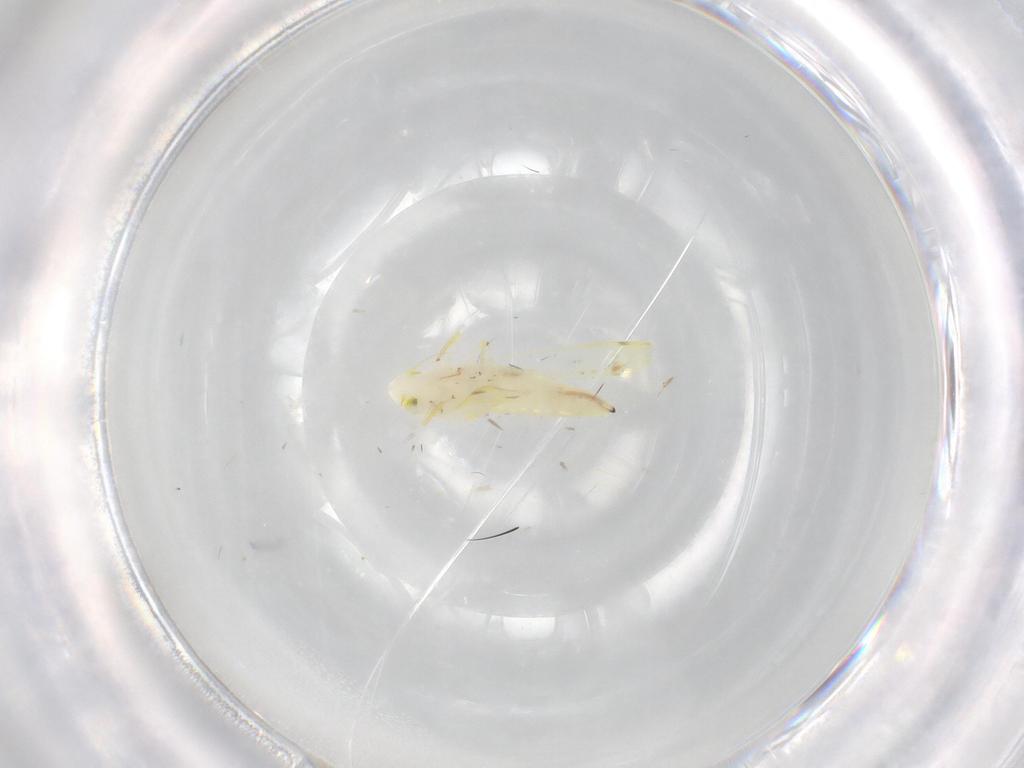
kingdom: Animalia
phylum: Arthropoda
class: Insecta
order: Hemiptera
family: Cicadellidae
